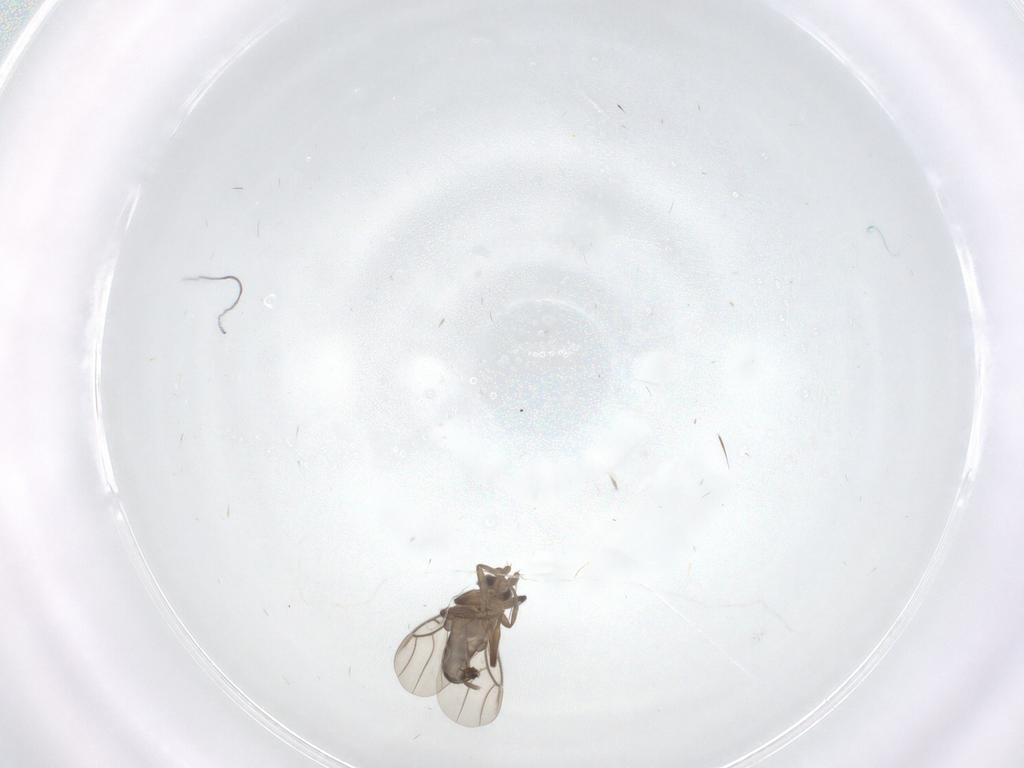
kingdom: Animalia
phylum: Arthropoda
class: Insecta
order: Diptera
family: Phoridae
